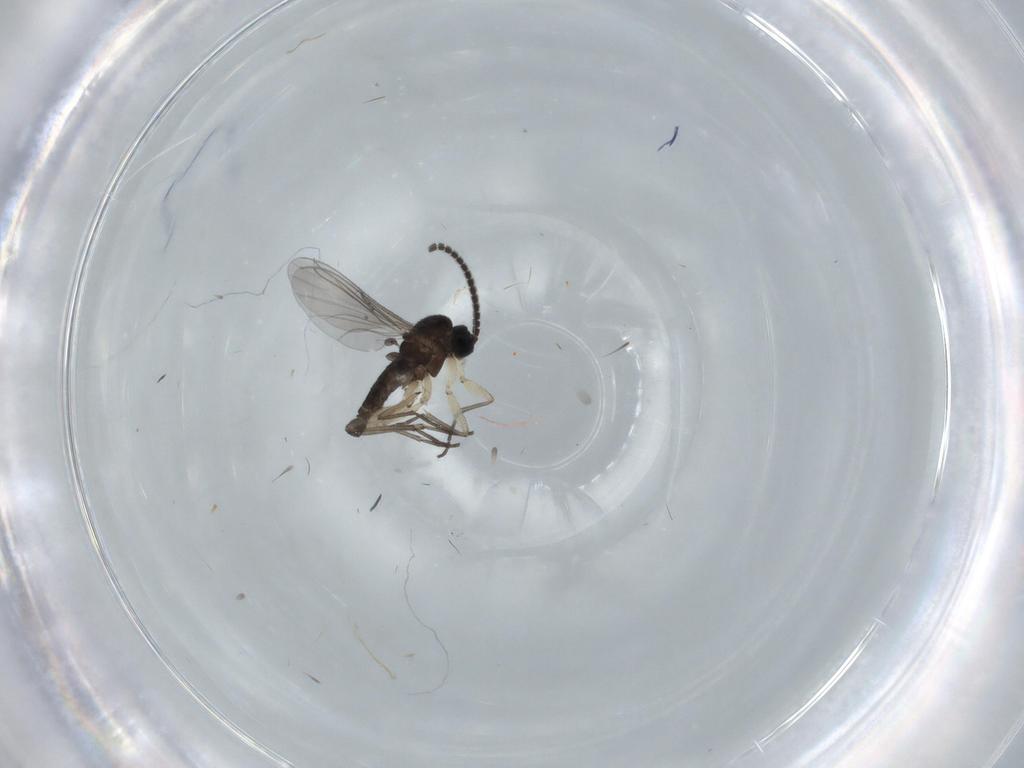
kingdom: Animalia
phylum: Arthropoda
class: Insecta
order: Diptera
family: Sciaridae
